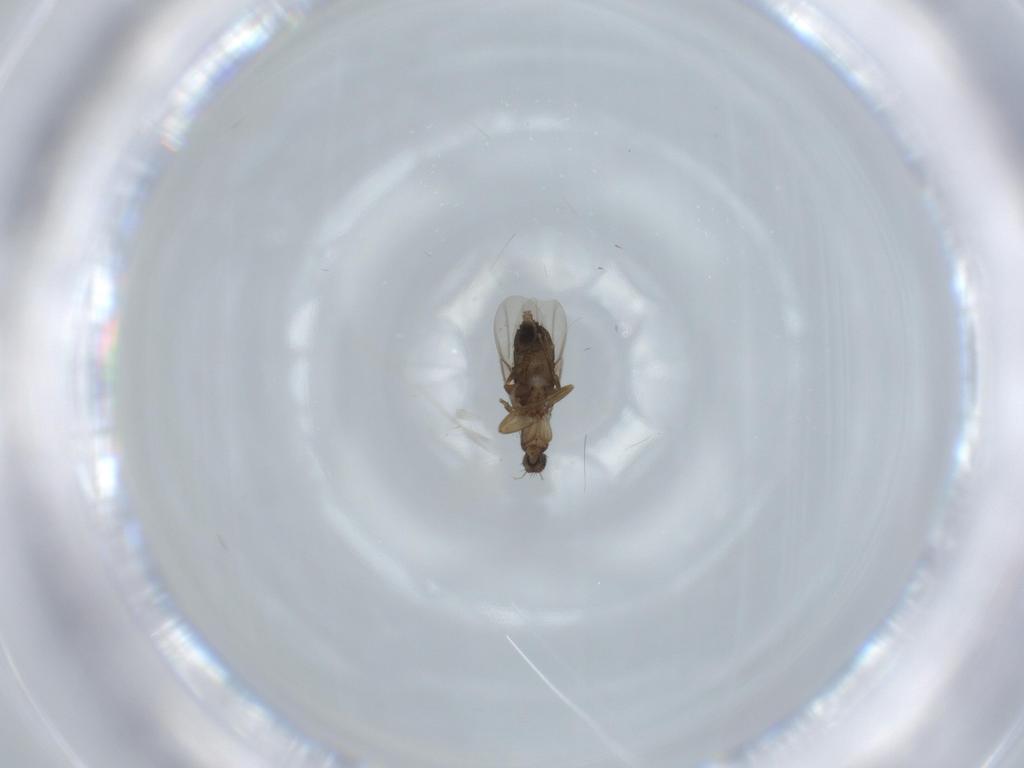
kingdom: Animalia
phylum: Arthropoda
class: Insecta
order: Diptera
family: Phoridae
